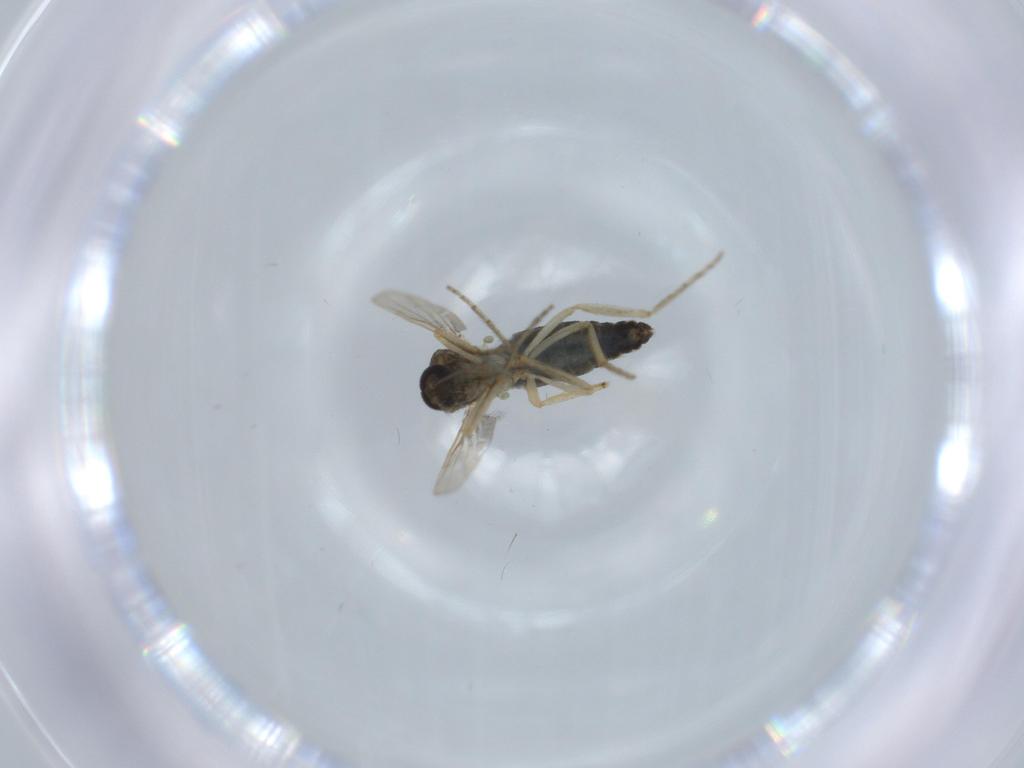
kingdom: Animalia
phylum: Arthropoda
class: Insecta
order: Diptera
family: Ceratopogonidae
